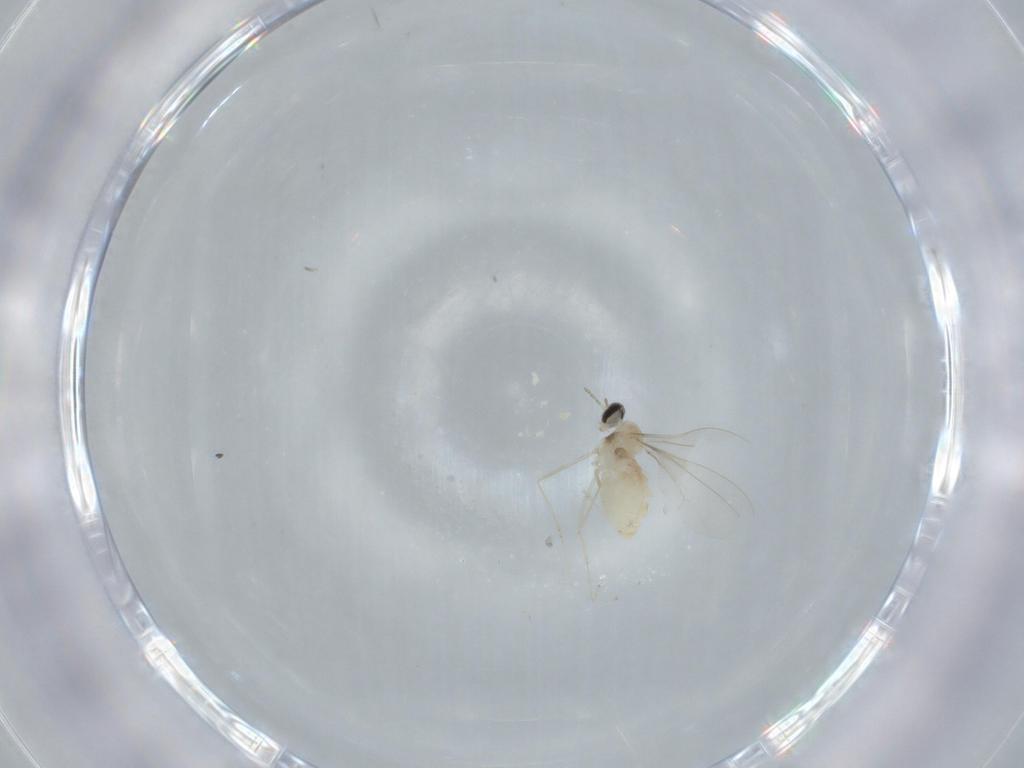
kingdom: Animalia
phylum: Arthropoda
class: Insecta
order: Diptera
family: Cecidomyiidae
